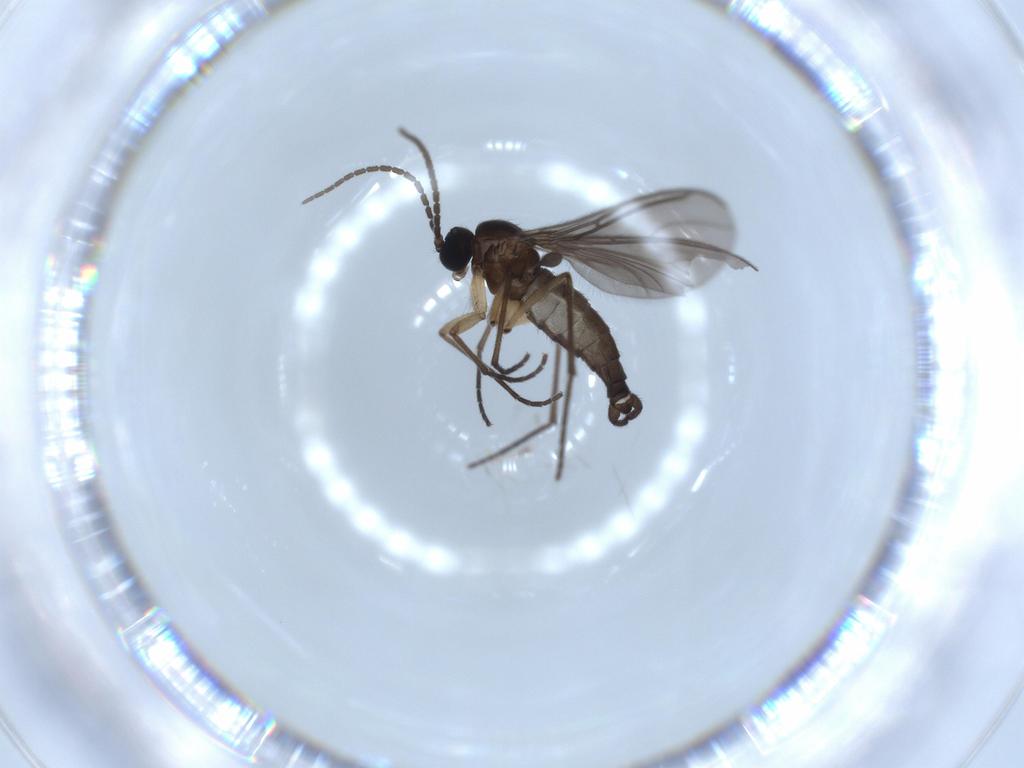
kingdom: Animalia
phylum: Arthropoda
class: Insecta
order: Diptera
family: Sciaridae
